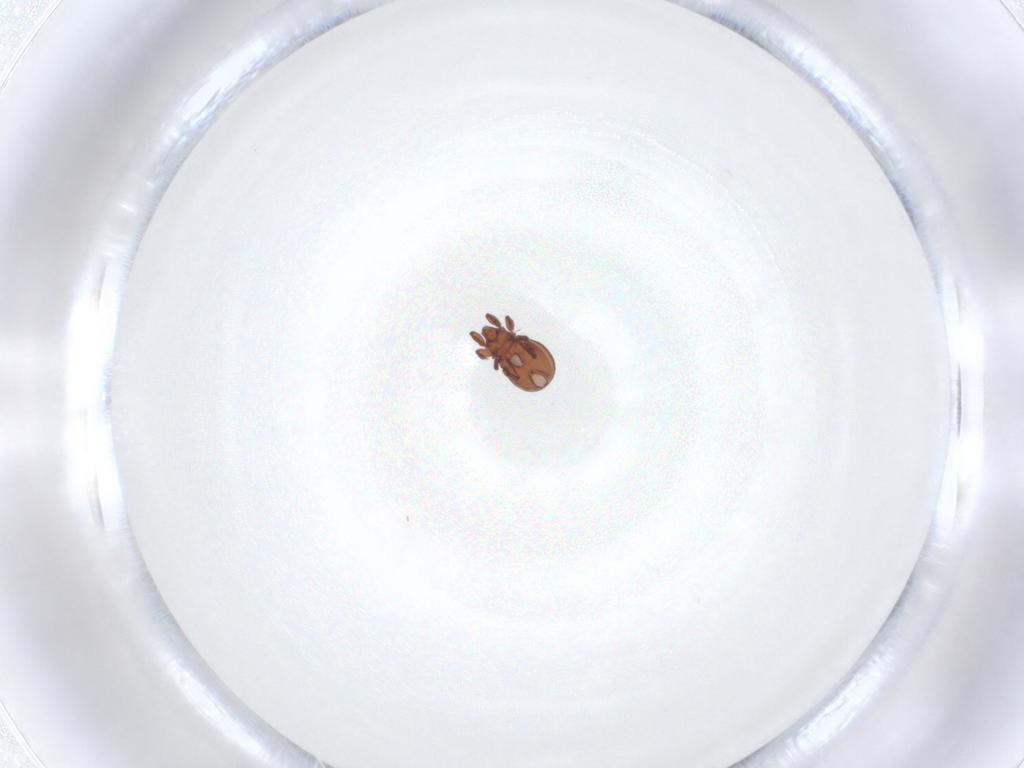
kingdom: Animalia
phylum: Arthropoda
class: Arachnida
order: Sarcoptiformes
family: Eremaeidae
